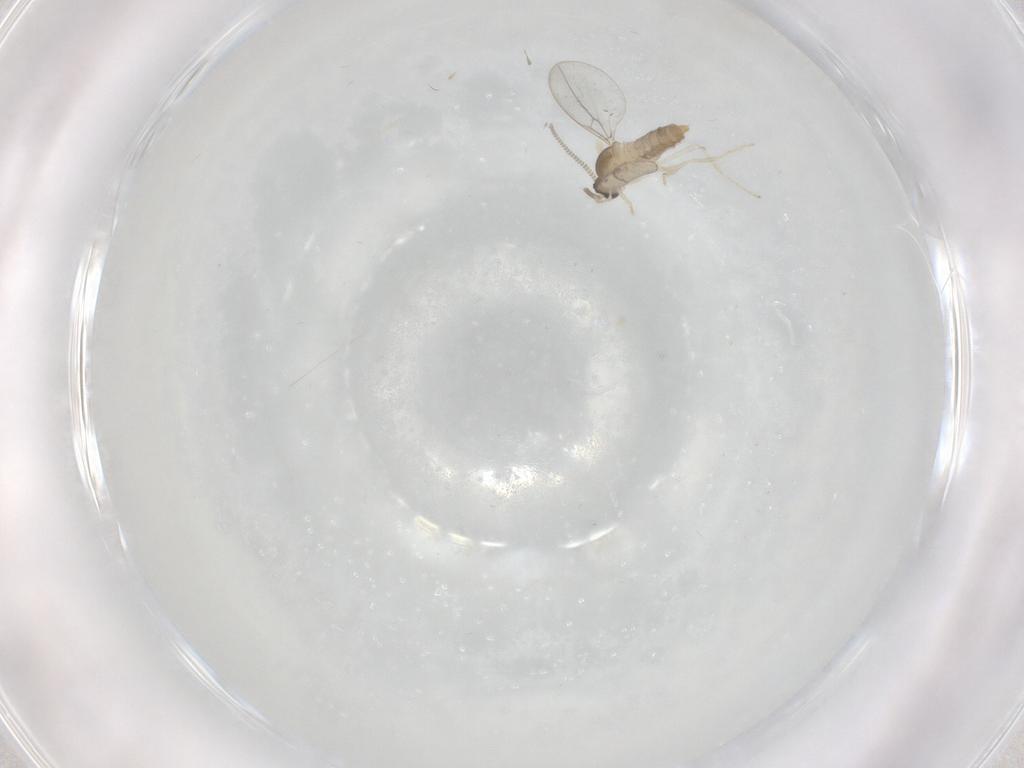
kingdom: Animalia
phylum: Arthropoda
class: Insecta
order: Diptera
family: Cecidomyiidae
